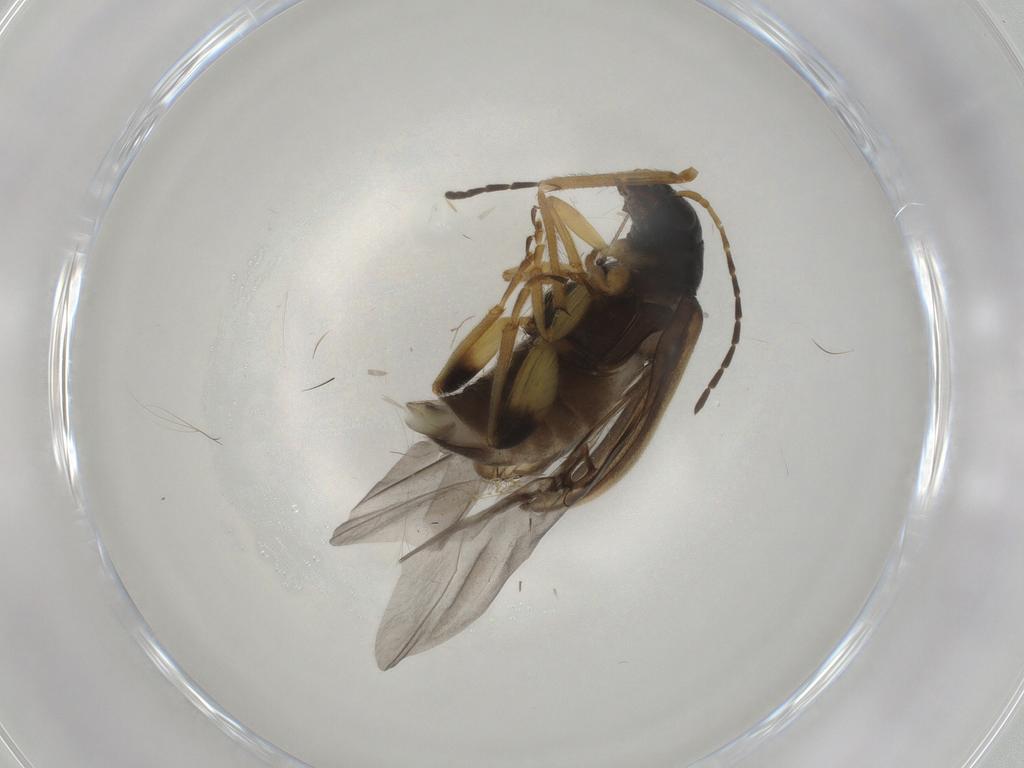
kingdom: Animalia
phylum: Arthropoda
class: Insecta
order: Coleoptera
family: Chrysomelidae
